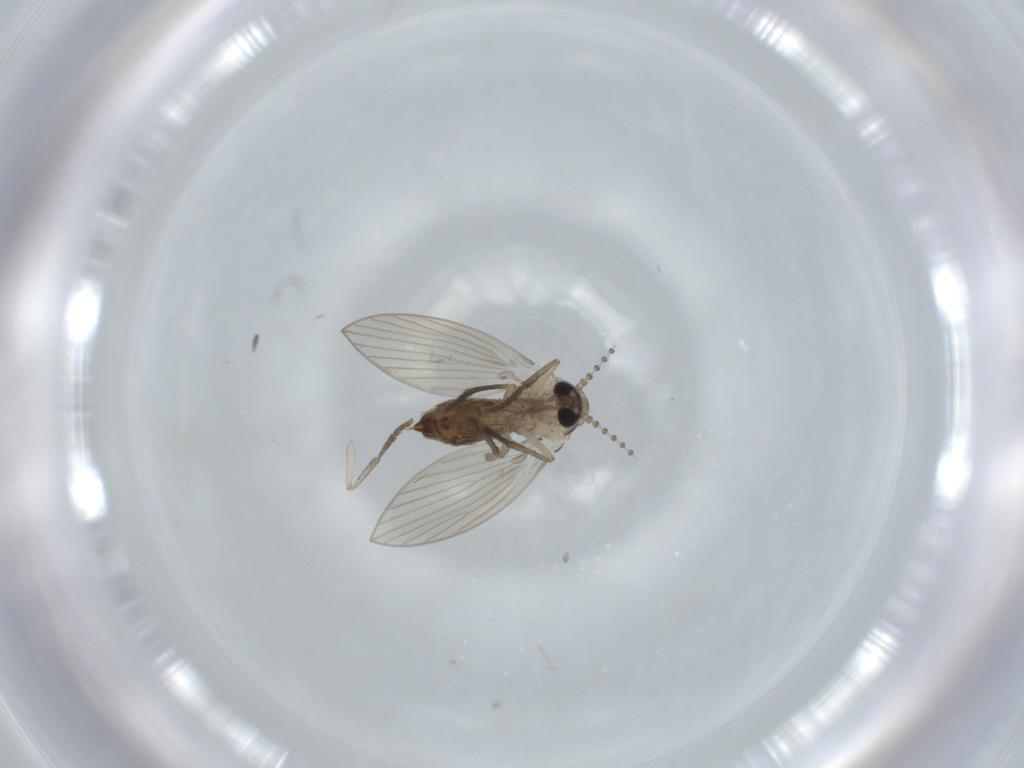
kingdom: Animalia
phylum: Arthropoda
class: Insecta
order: Diptera
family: Psychodidae
